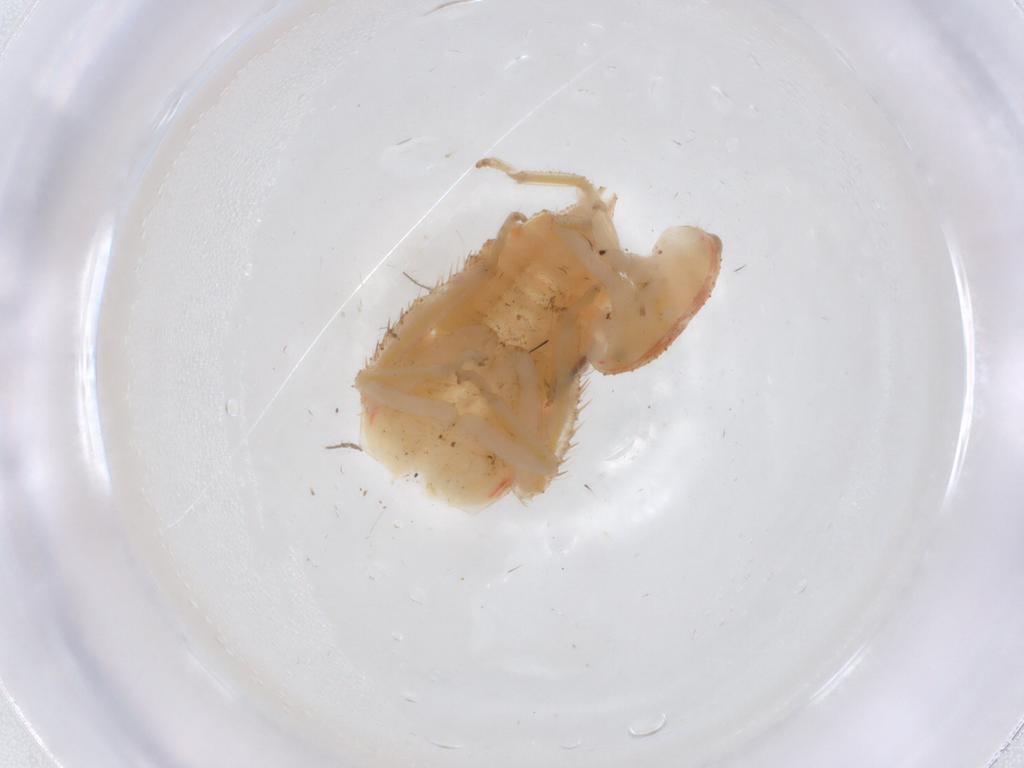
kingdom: Animalia
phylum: Arthropoda
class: Insecta
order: Hemiptera
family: Cicadellidae
